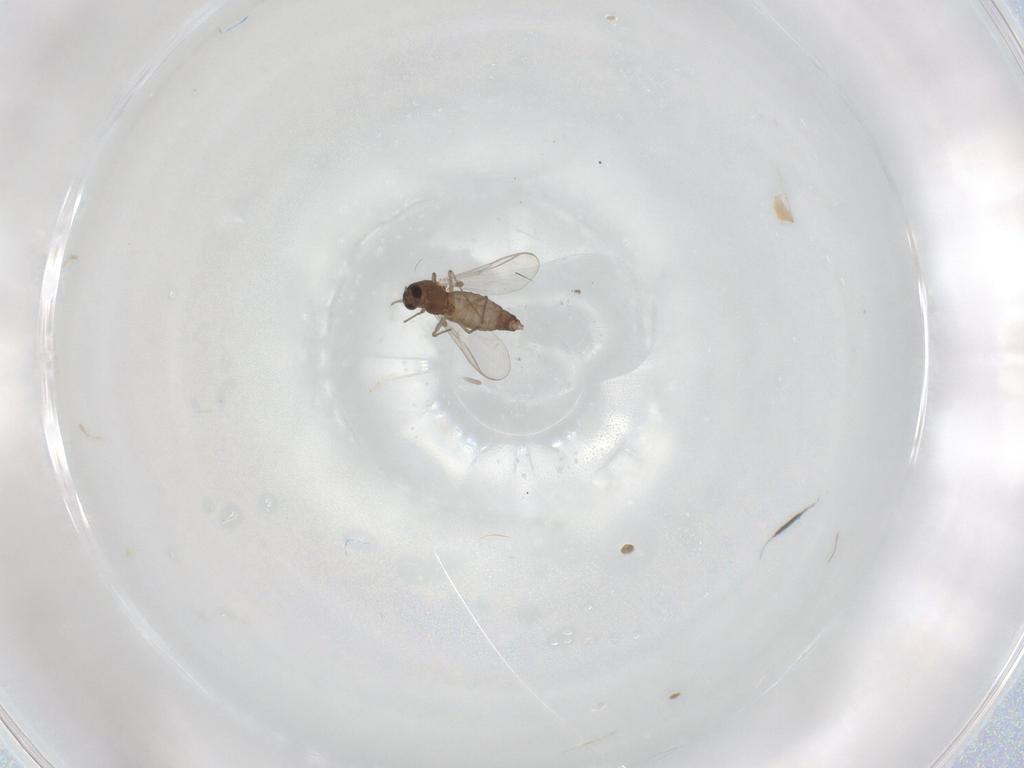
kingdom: Animalia
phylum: Arthropoda
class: Insecta
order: Diptera
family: Chironomidae
